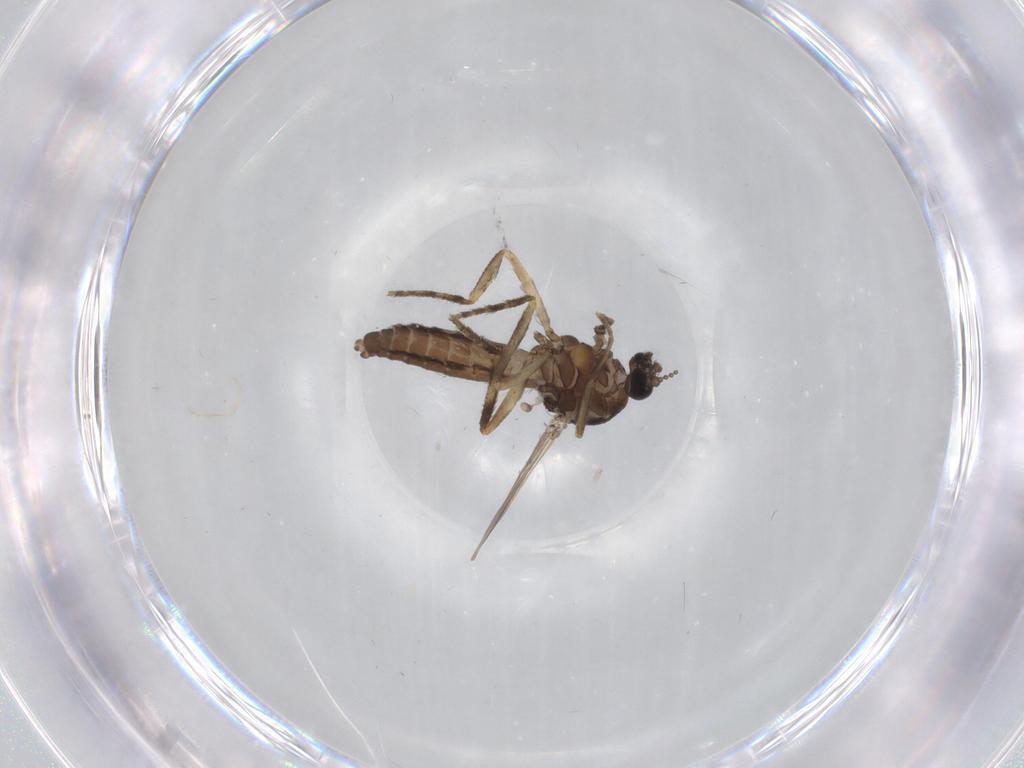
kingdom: Animalia
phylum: Arthropoda
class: Insecta
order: Diptera
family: Ceratopogonidae
